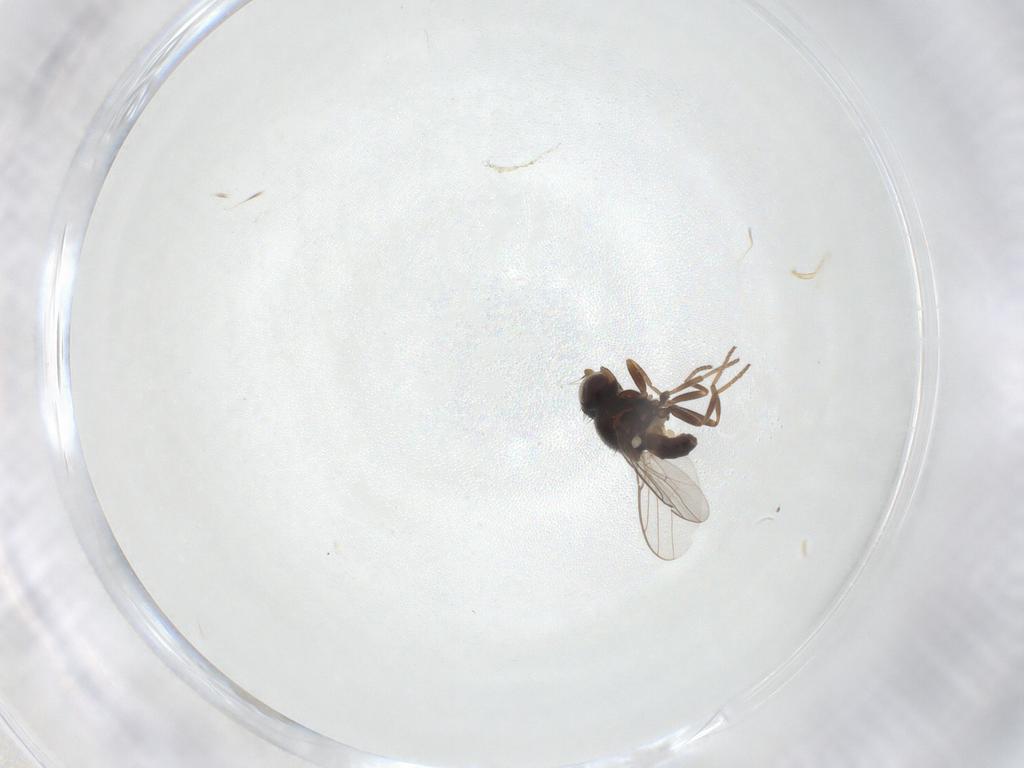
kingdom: Animalia
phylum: Arthropoda
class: Insecta
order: Diptera
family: Chloropidae
